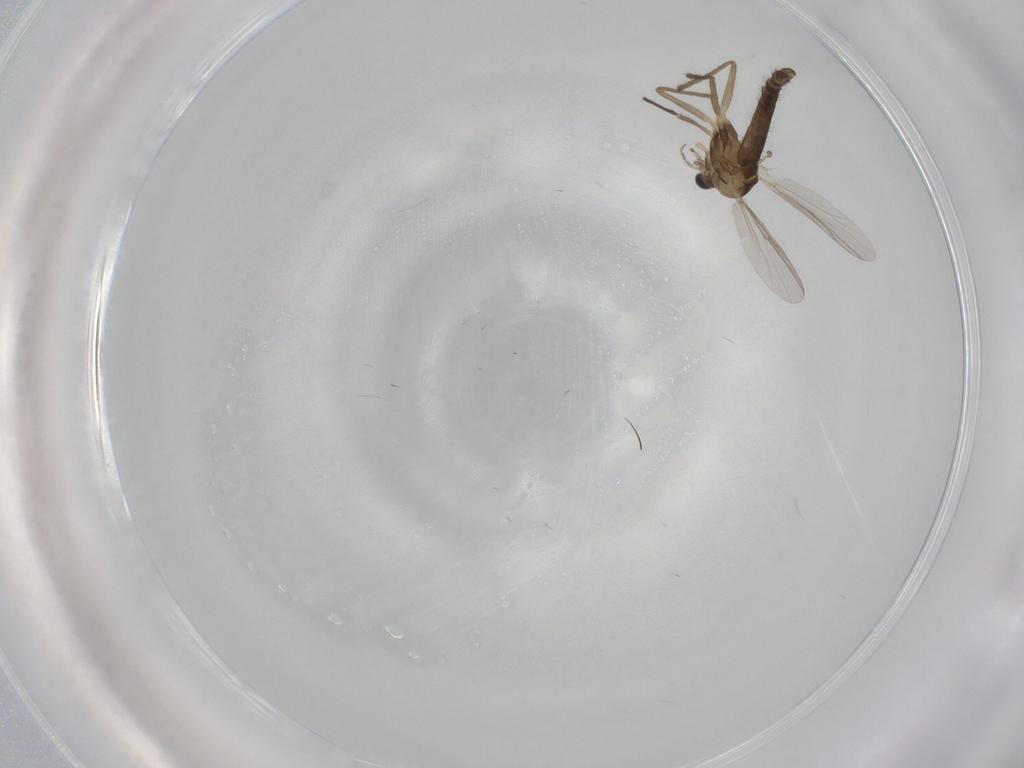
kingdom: Animalia
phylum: Arthropoda
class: Insecta
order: Diptera
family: Chironomidae
